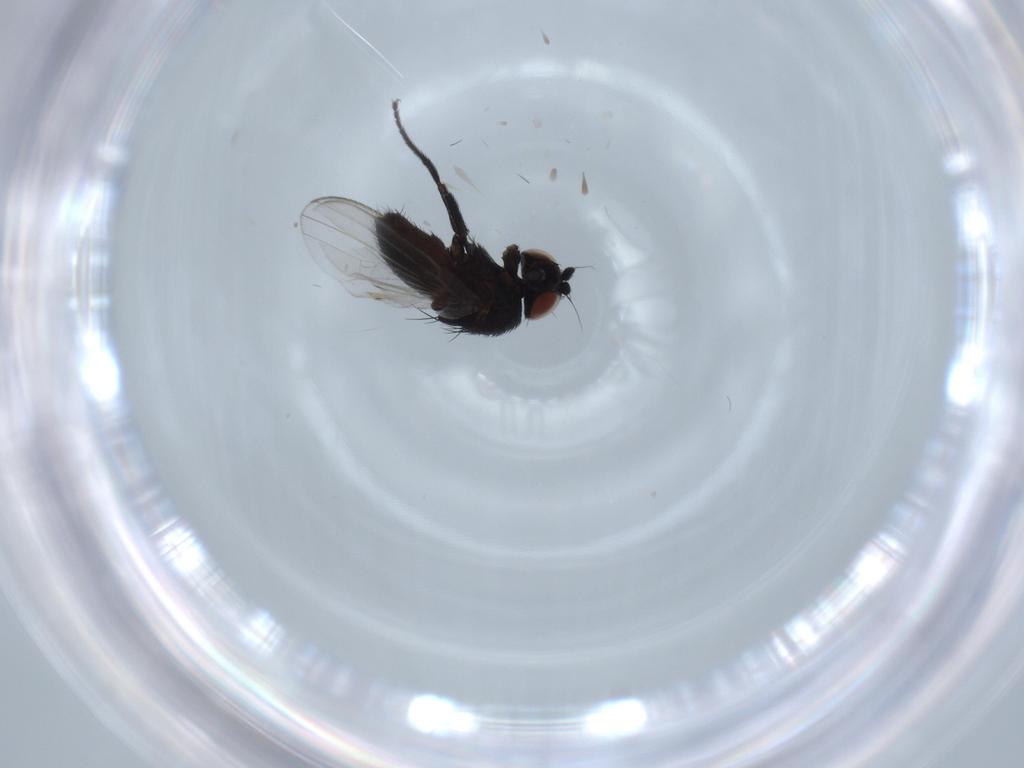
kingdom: Animalia
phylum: Arthropoda
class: Insecta
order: Diptera
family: Milichiidae
